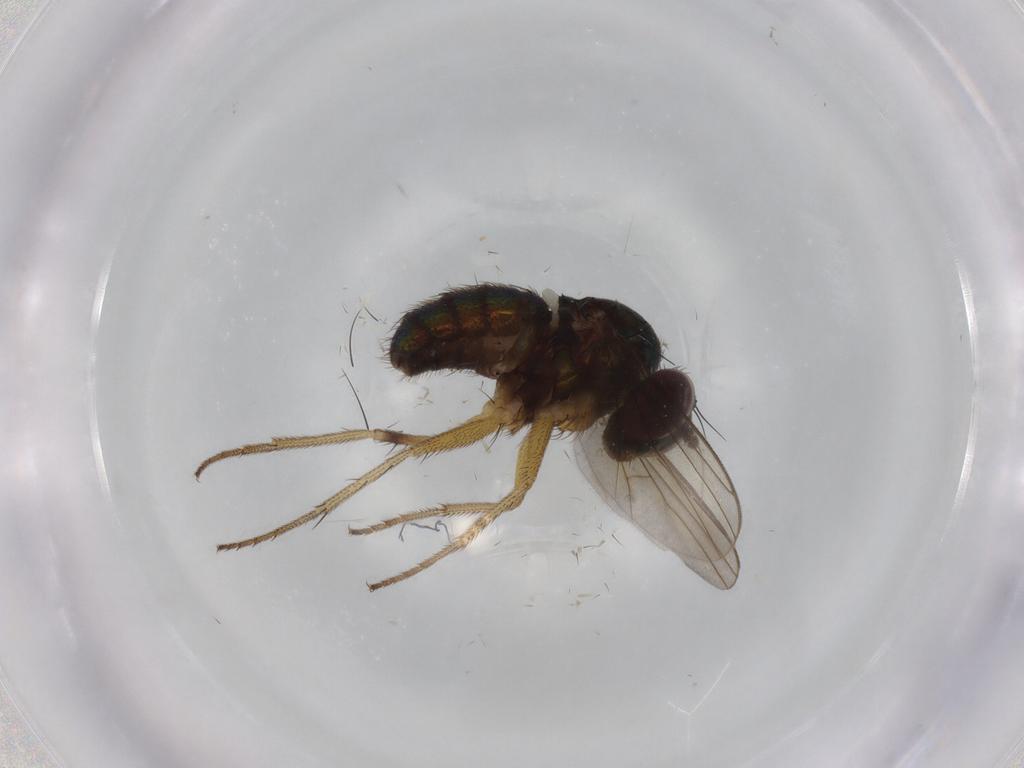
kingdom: Animalia
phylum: Arthropoda
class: Insecta
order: Diptera
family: Dolichopodidae
